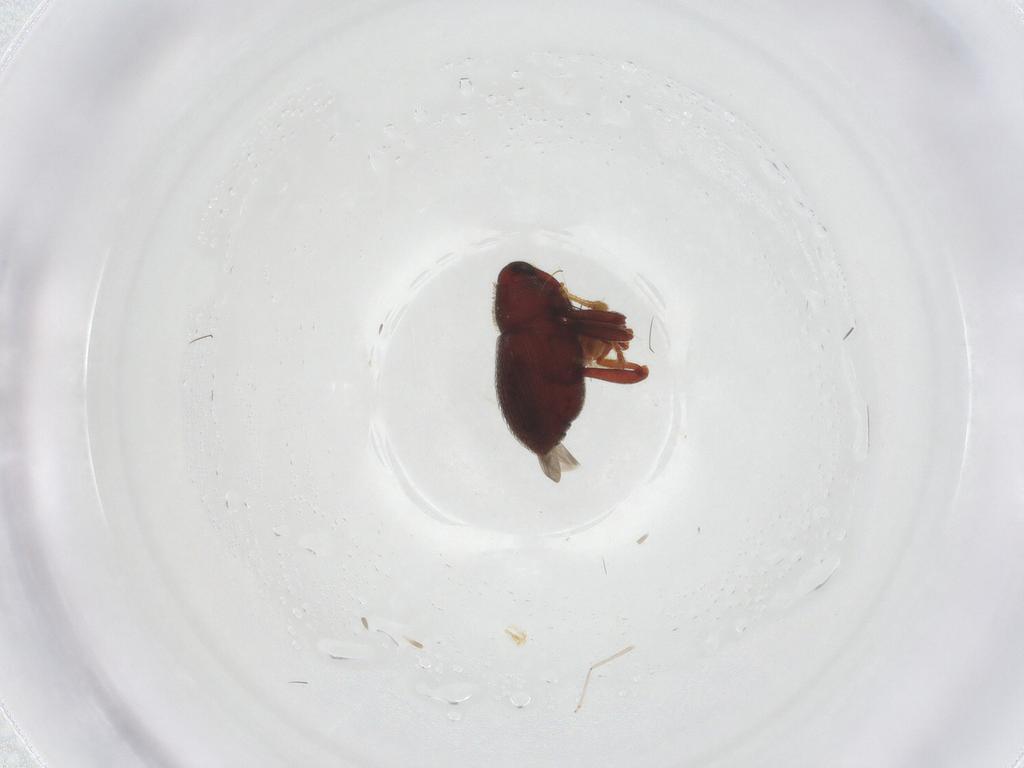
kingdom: Animalia
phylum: Arthropoda
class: Insecta
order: Coleoptera
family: Curculionidae
